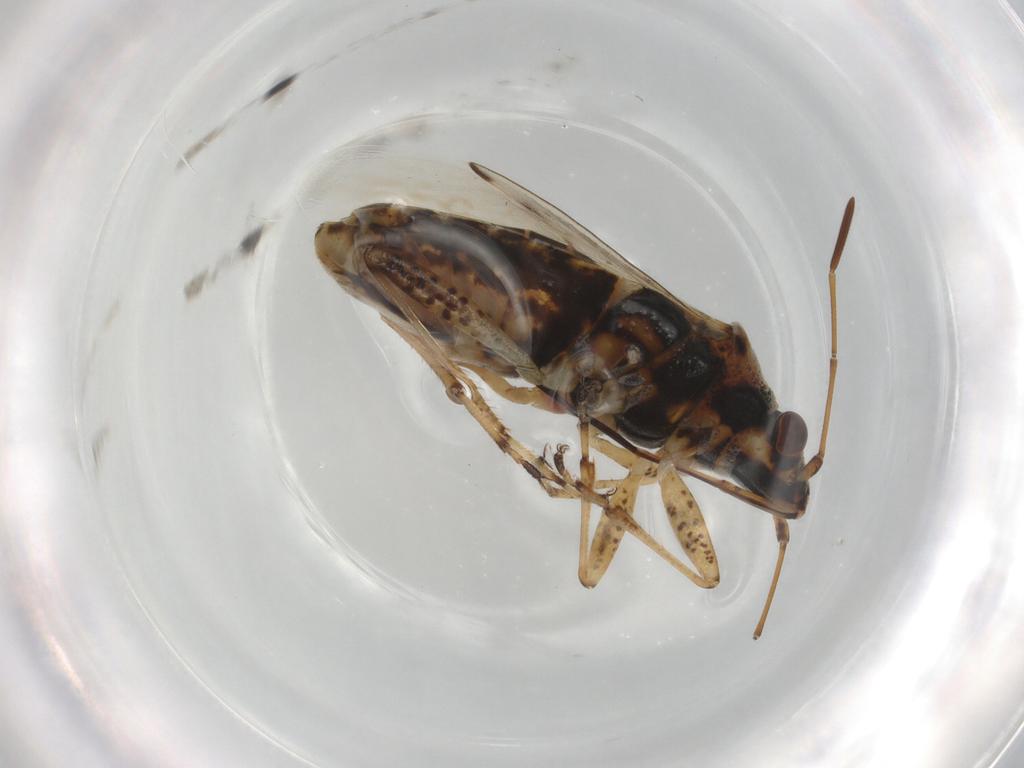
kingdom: Animalia
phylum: Arthropoda
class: Insecta
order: Hemiptera
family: Lygaeidae
